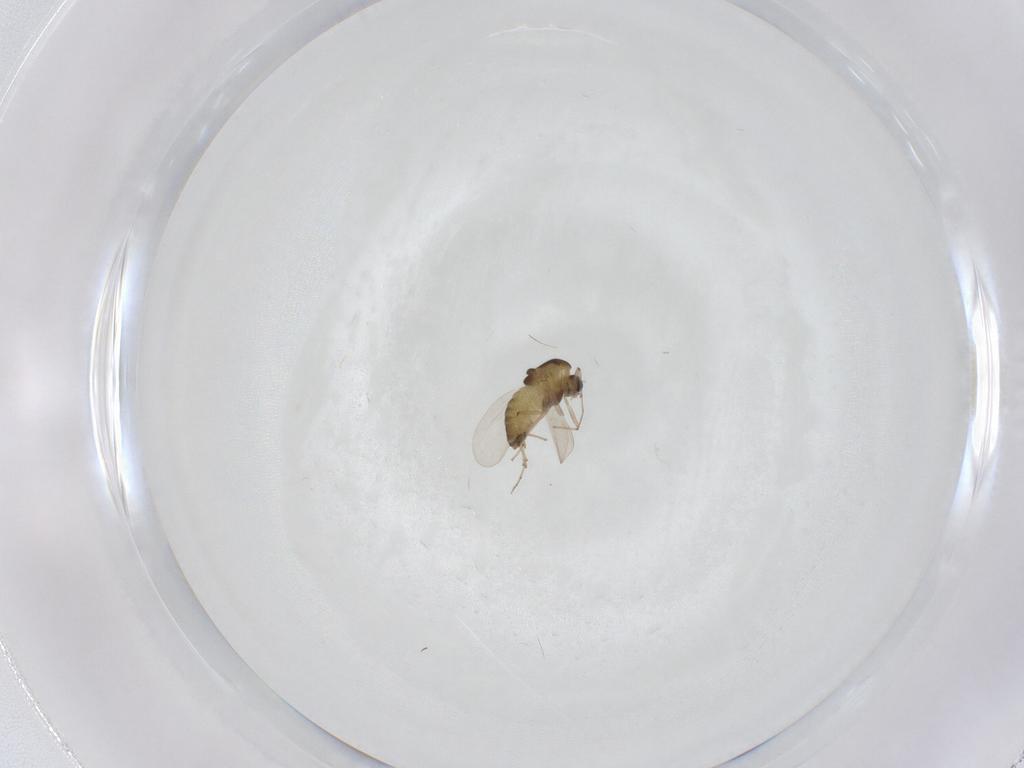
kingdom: Animalia
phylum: Arthropoda
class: Insecta
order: Diptera
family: Chironomidae
